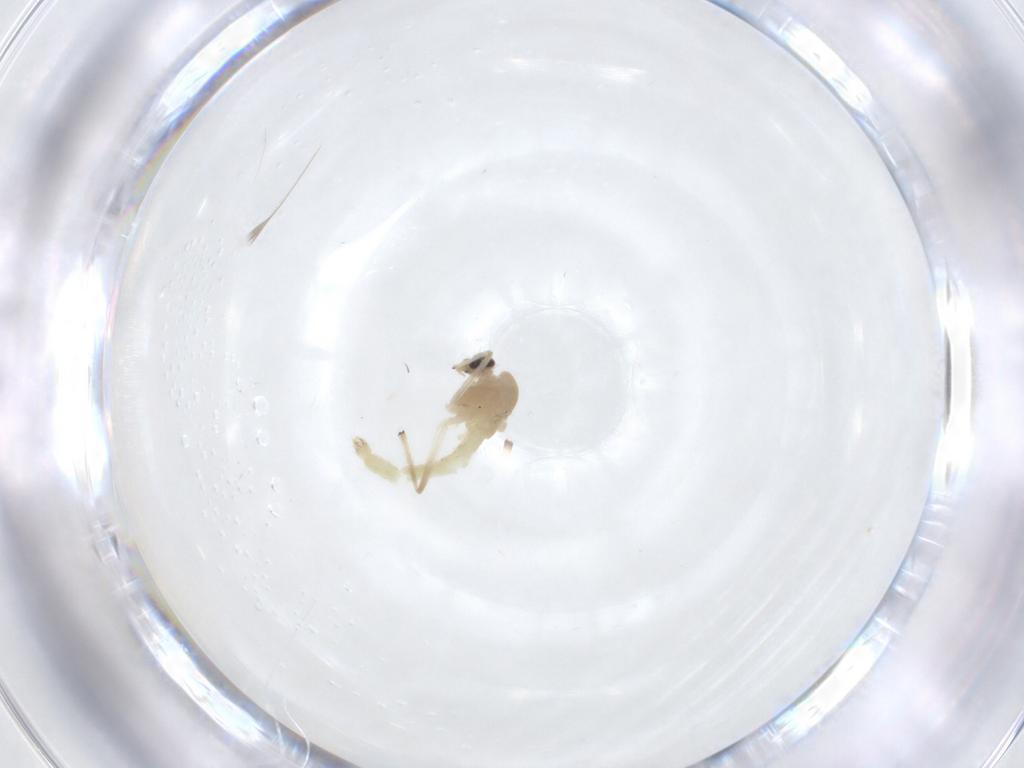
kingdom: Animalia
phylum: Arthropoda
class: Insecta
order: Diptera
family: Chironomidae
